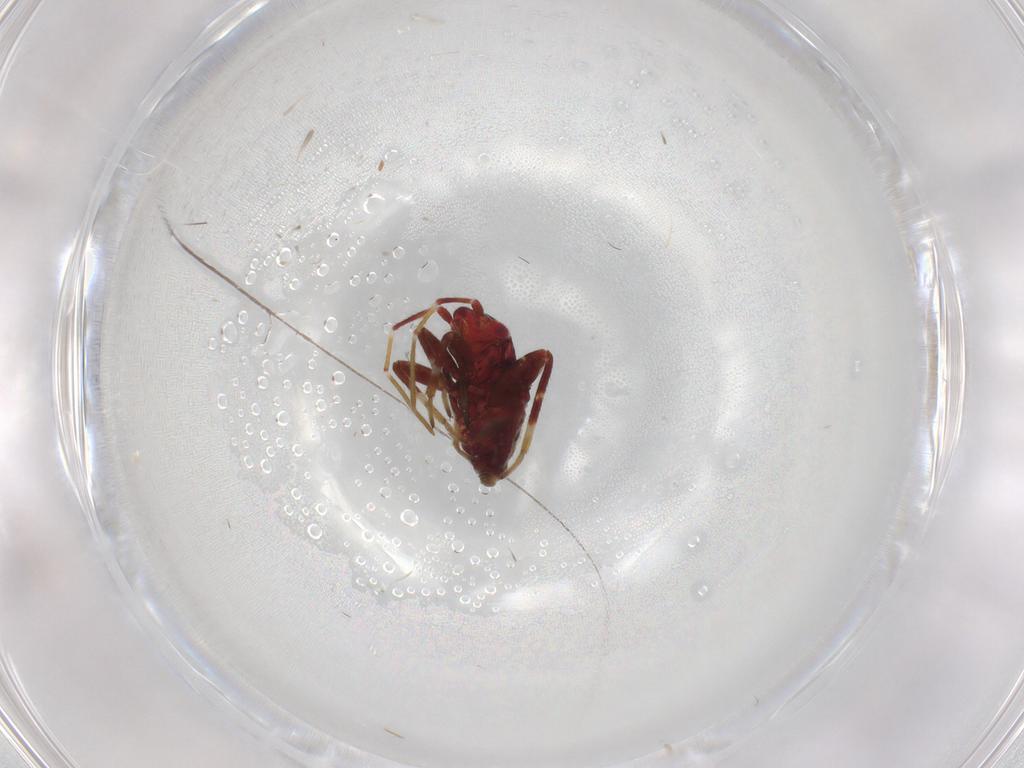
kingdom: Animalia
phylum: Arthropoda
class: Insecta
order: Hemiptera
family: Miridae
